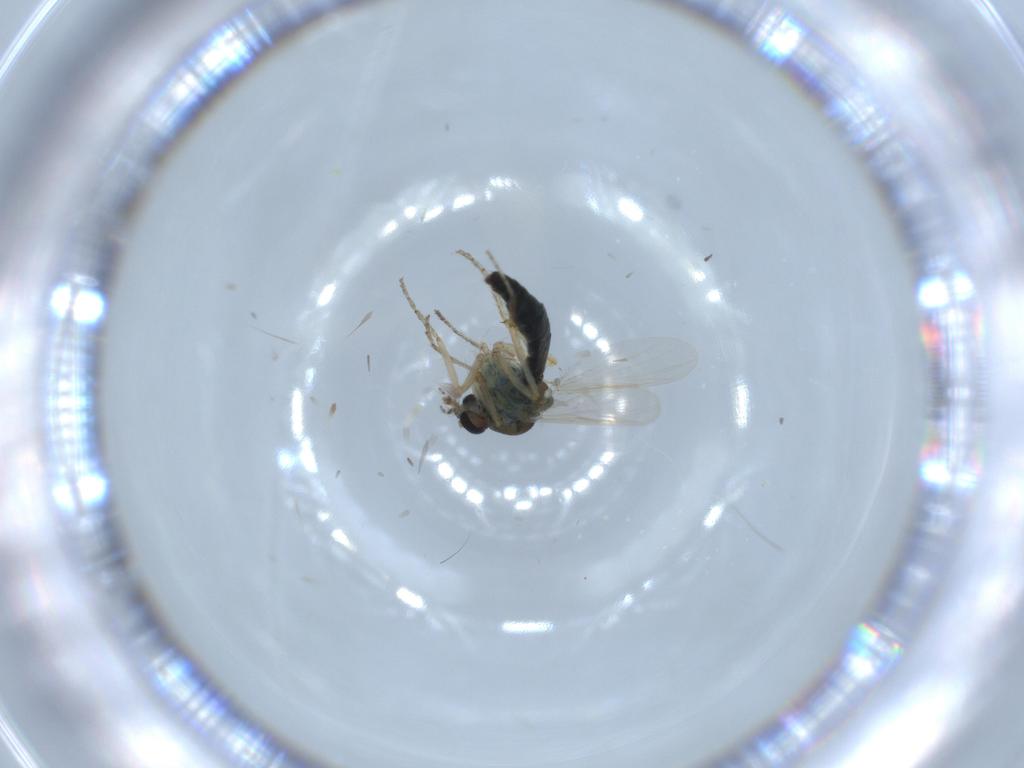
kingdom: Animalia
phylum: Arthropoda
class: Insecta
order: Diptera
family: Ceratopogonidae
